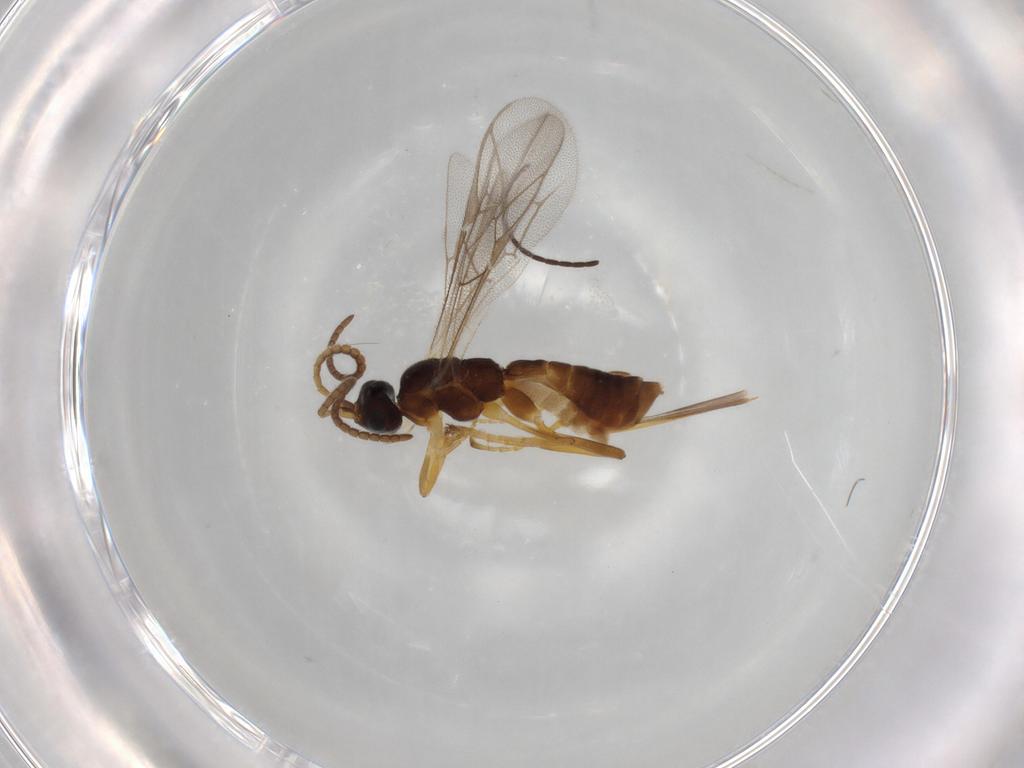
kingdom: Animalia
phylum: Arthropoda
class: Insecta
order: Hymenoptera
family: Ichneumonidae
